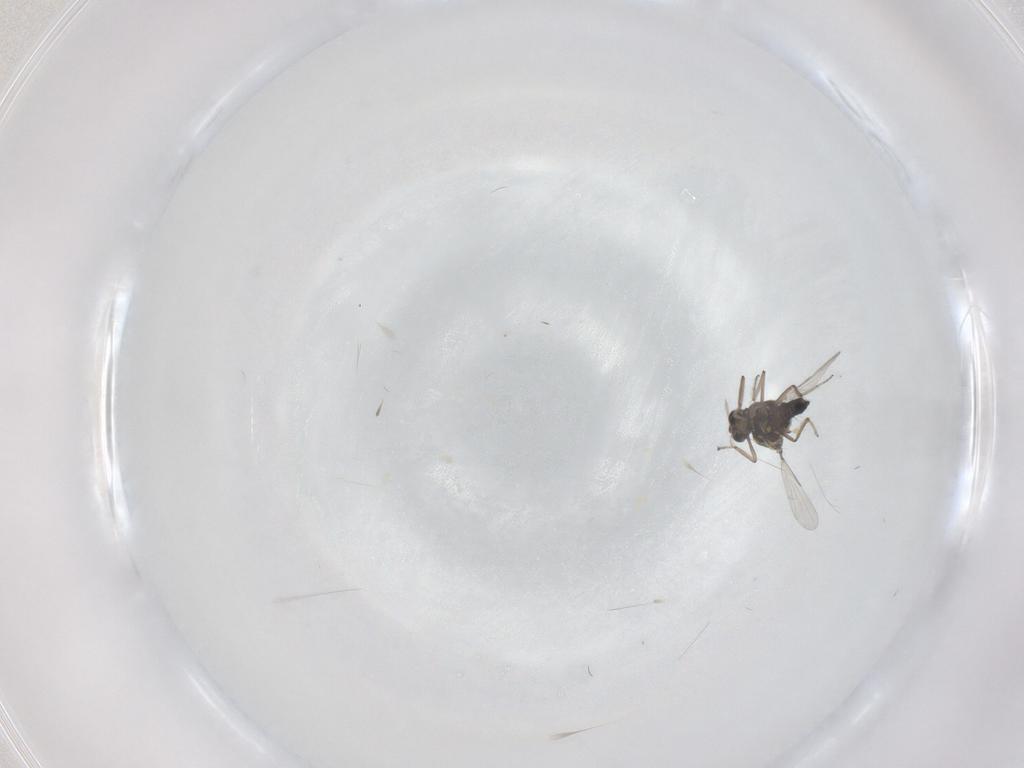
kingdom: Animalia
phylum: Arthropoda
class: Insecta
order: Diptera
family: Ceratopogonidae
